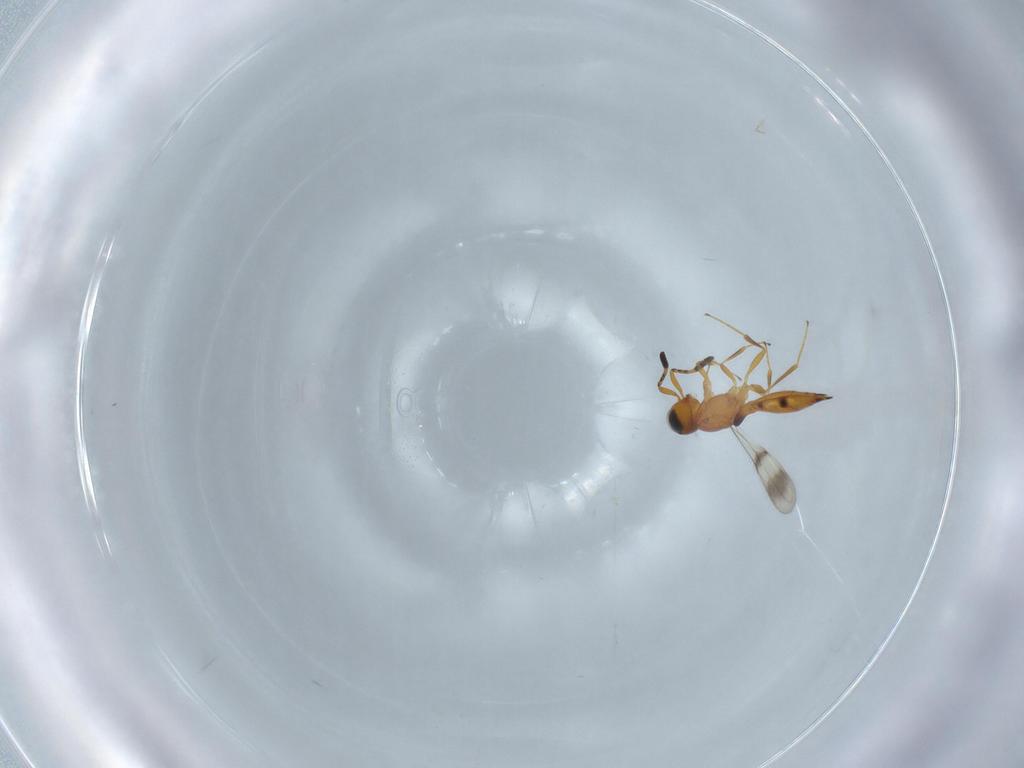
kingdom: Animalia
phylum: Arthropoda
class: Insecta
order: Hymenoptera
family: Scelionidae
